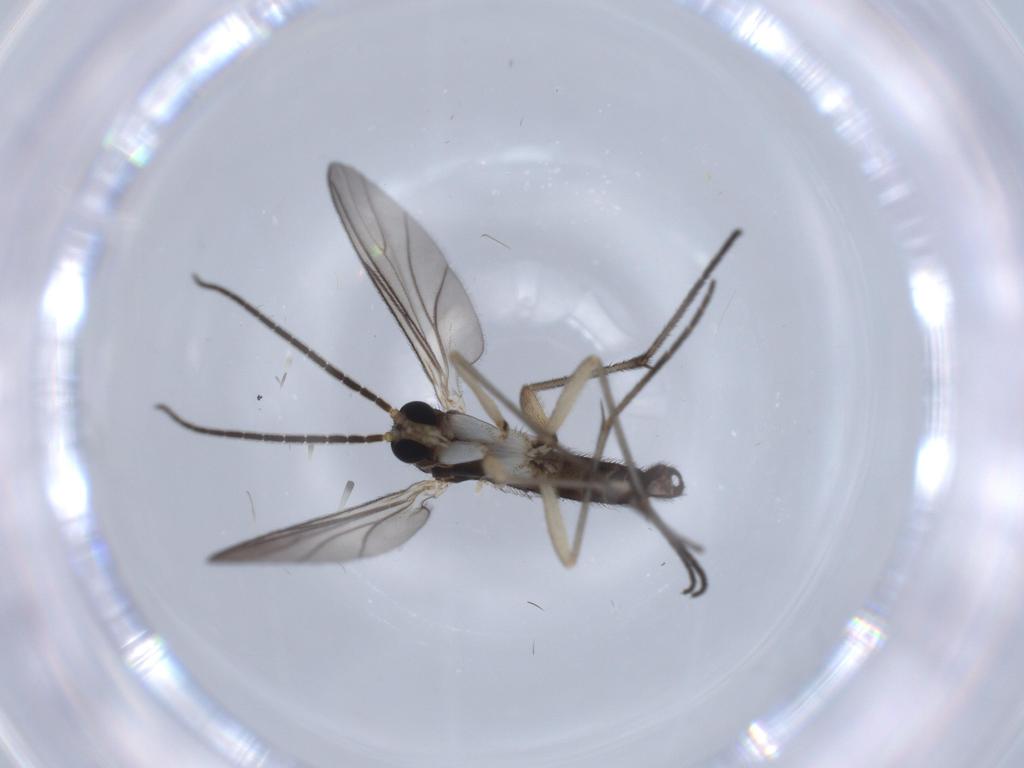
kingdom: Animalia
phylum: Arthropoda
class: Insecta
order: Diptera
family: Sciaridae
